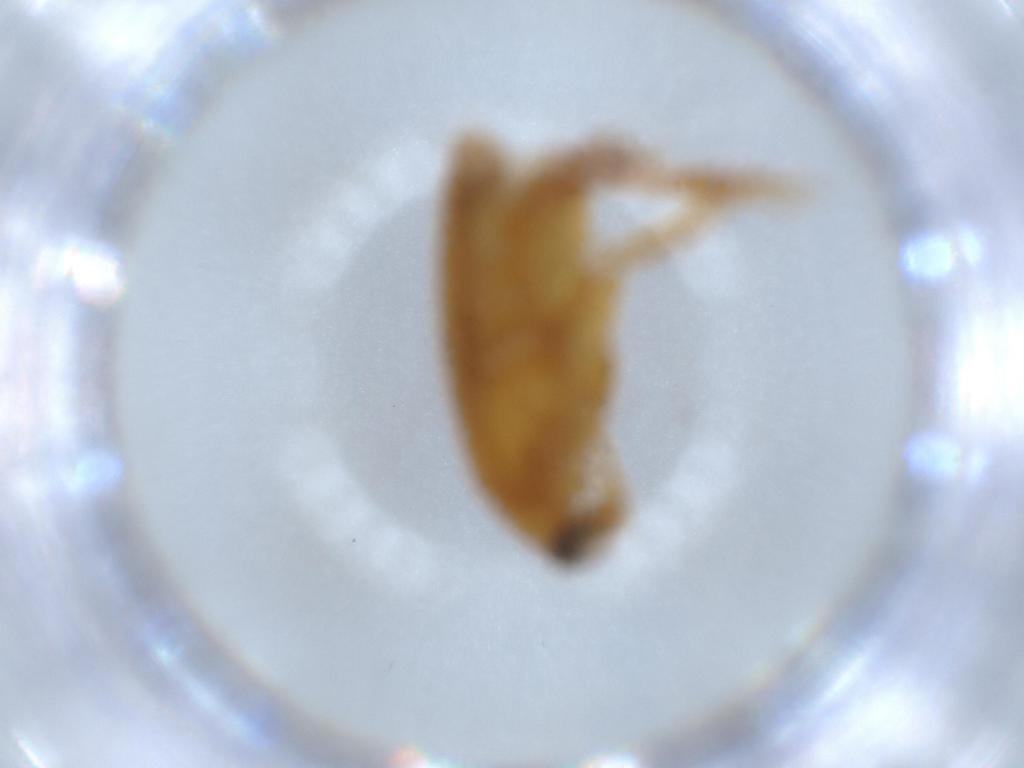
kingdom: Animalia
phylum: Arthropoda
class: Insecta
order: Coleoptera
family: Scraptiidae
